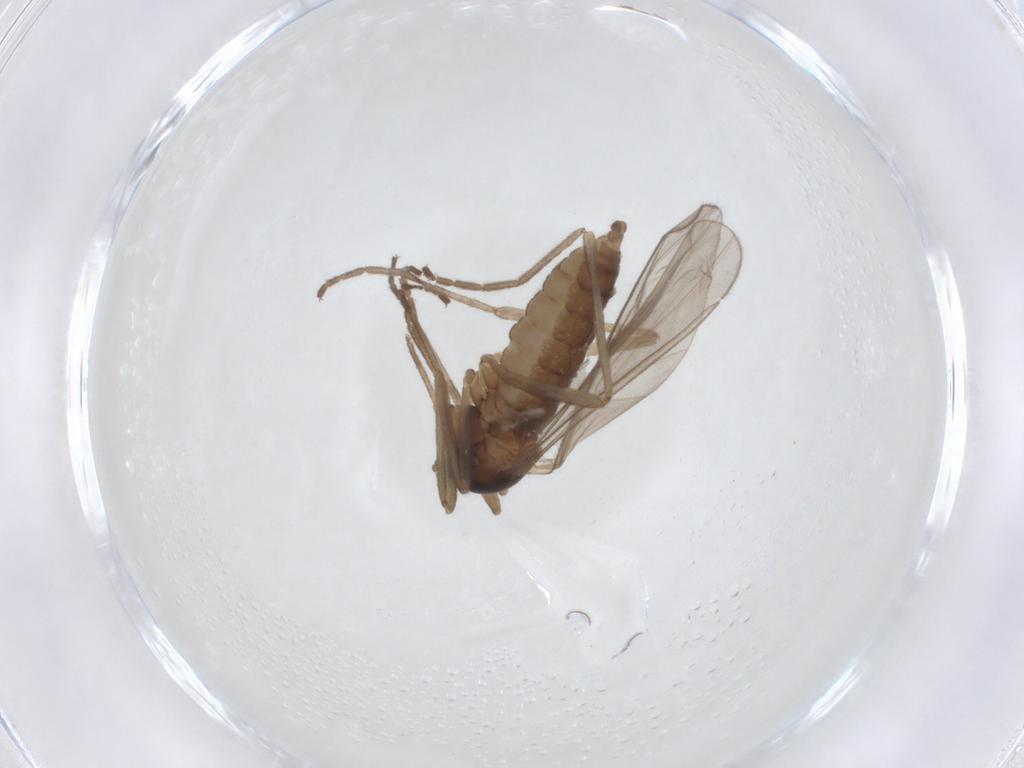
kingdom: Animalia
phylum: Arthropoda
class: Insecta
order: Diptera
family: Cecidomyiidae
